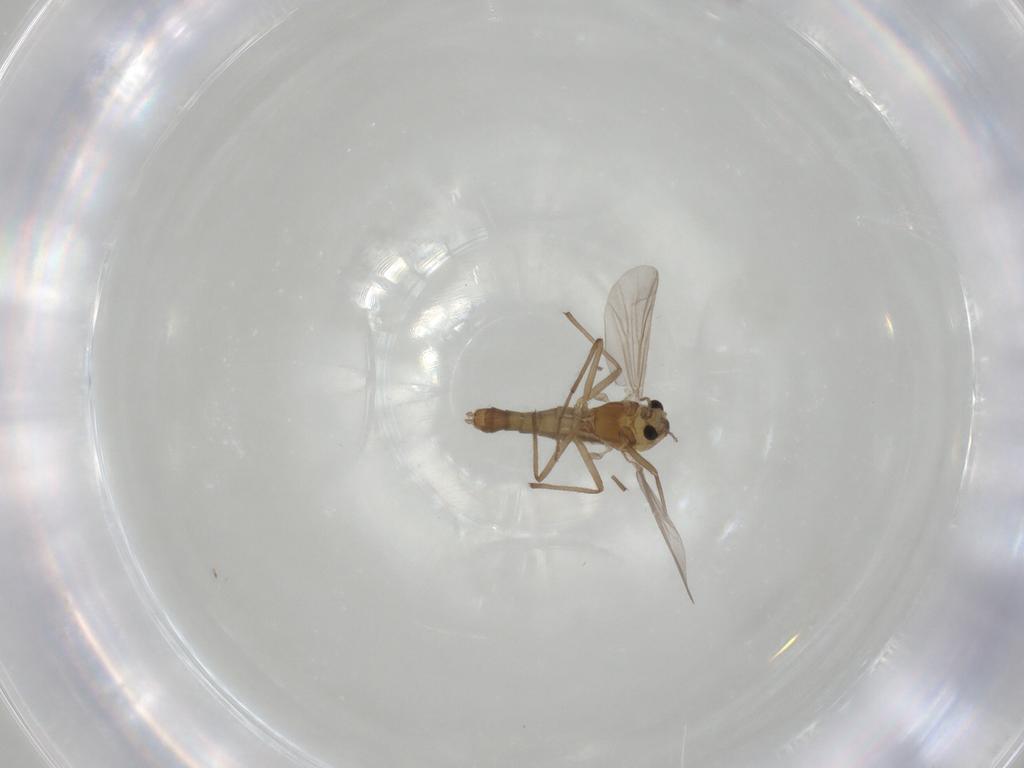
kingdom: Animalia
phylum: Arthropoda
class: Insecta
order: Diptera
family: Chironomidae
